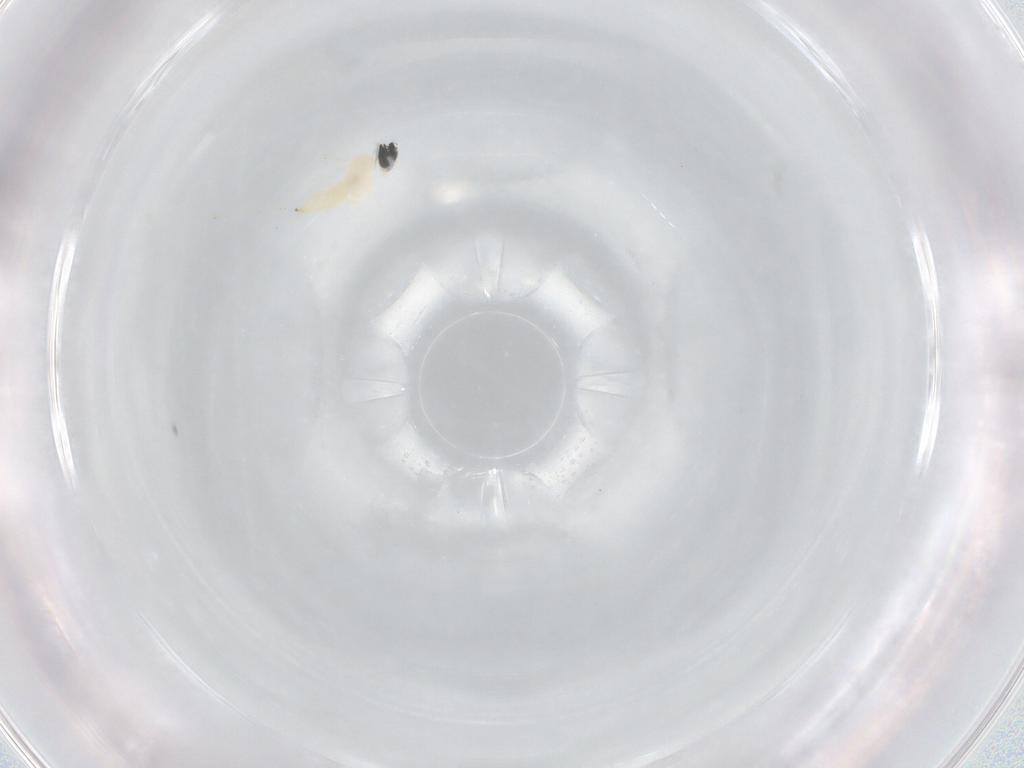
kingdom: Animalia
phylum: Arthropoda
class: Insecta
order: Diptera
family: Cecidomyiidae
